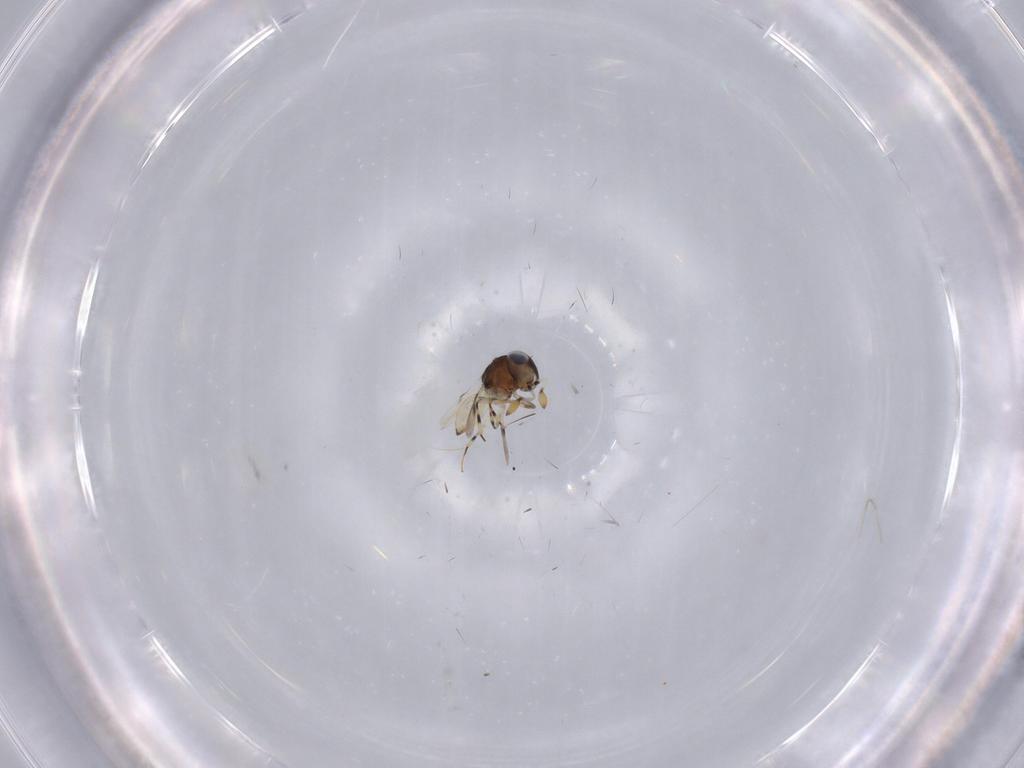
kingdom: Animalia
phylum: Arthropoda
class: Insecta
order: Hymenoptera
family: Scelionidae
